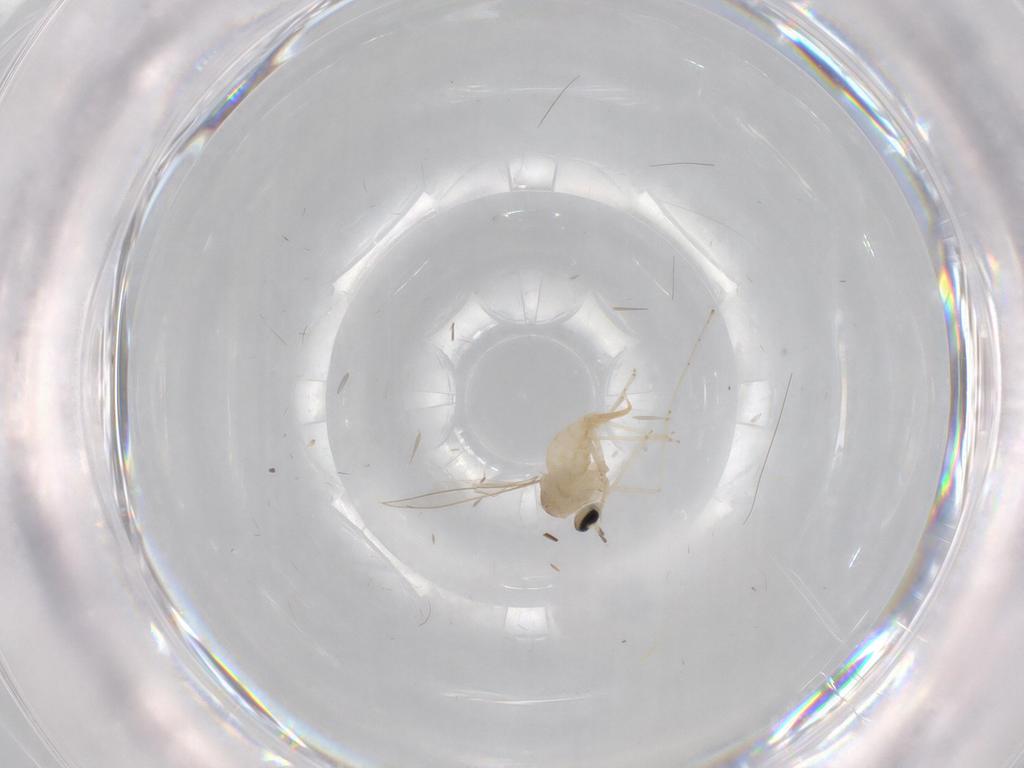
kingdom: Animalia
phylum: Arthropoda
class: Insecta
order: Diptera
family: Cecidomyiidae
